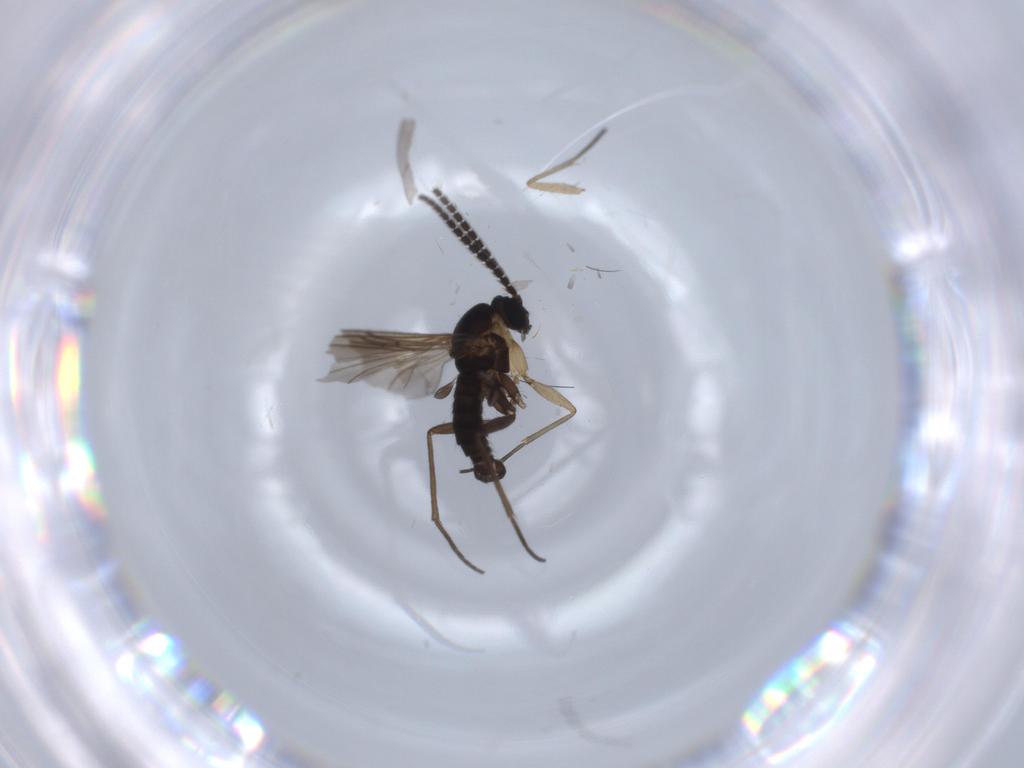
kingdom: Animalia
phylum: Arthropoda
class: Insecta
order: Diptera
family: Sciaridae
